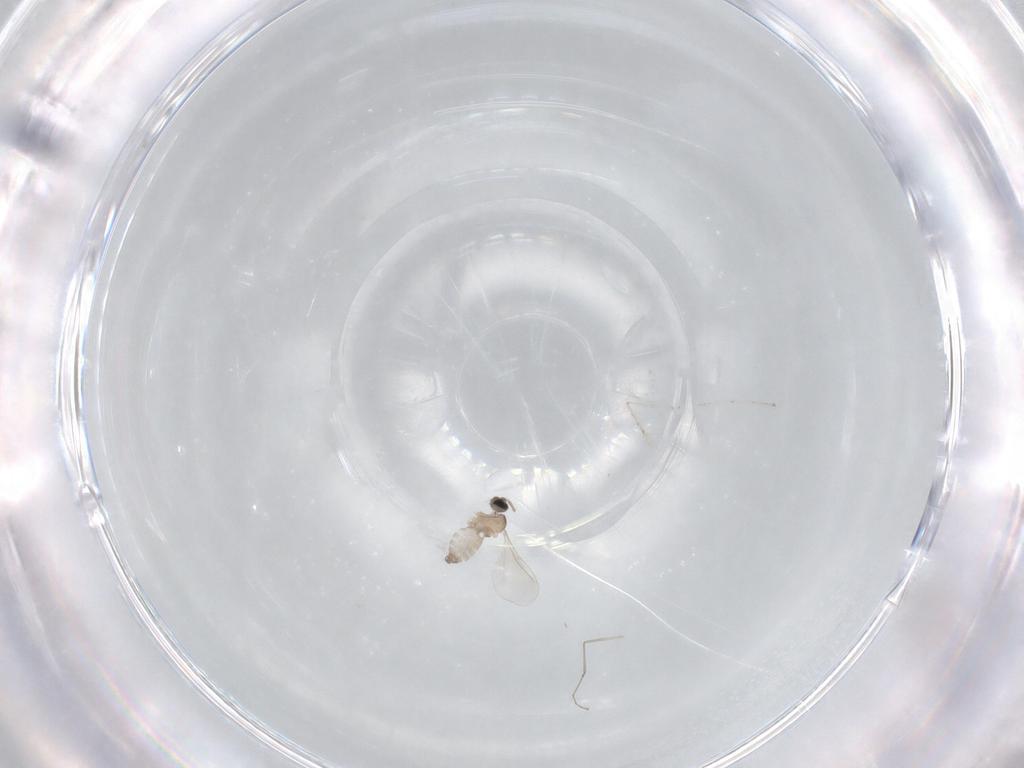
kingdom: Animalia
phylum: Arthropoda
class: Insecta
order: Diptera
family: Cecidomyiidae
